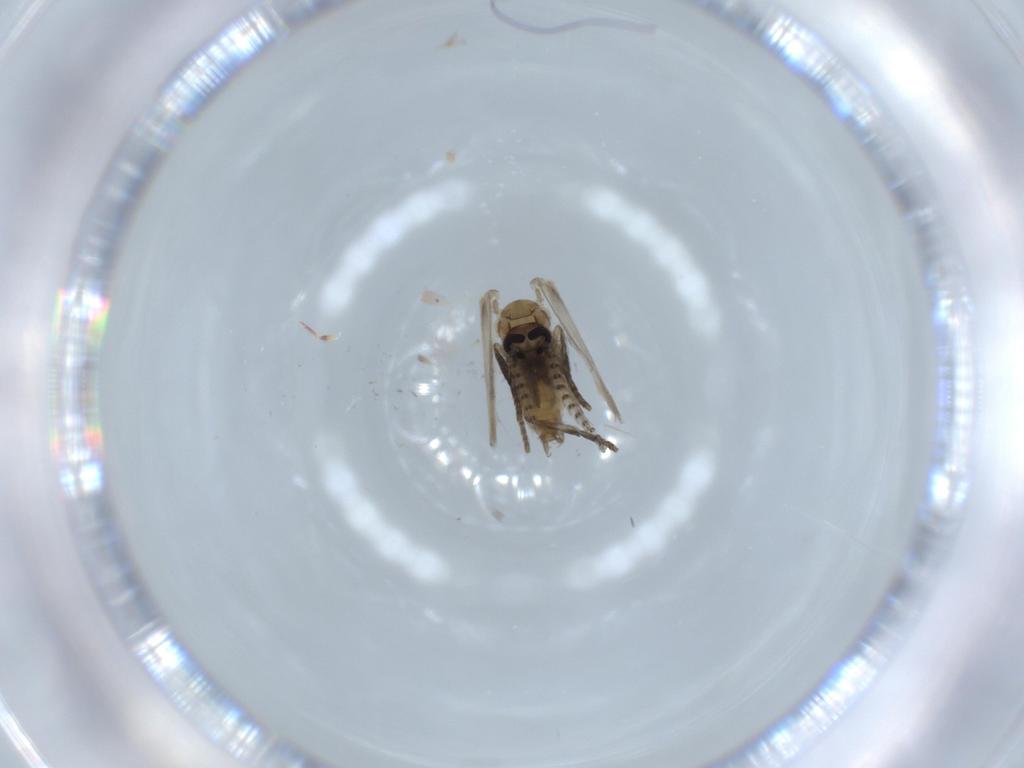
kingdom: Animalia
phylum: Arthropoda
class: Insecta
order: Diptera
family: Psychodidae
